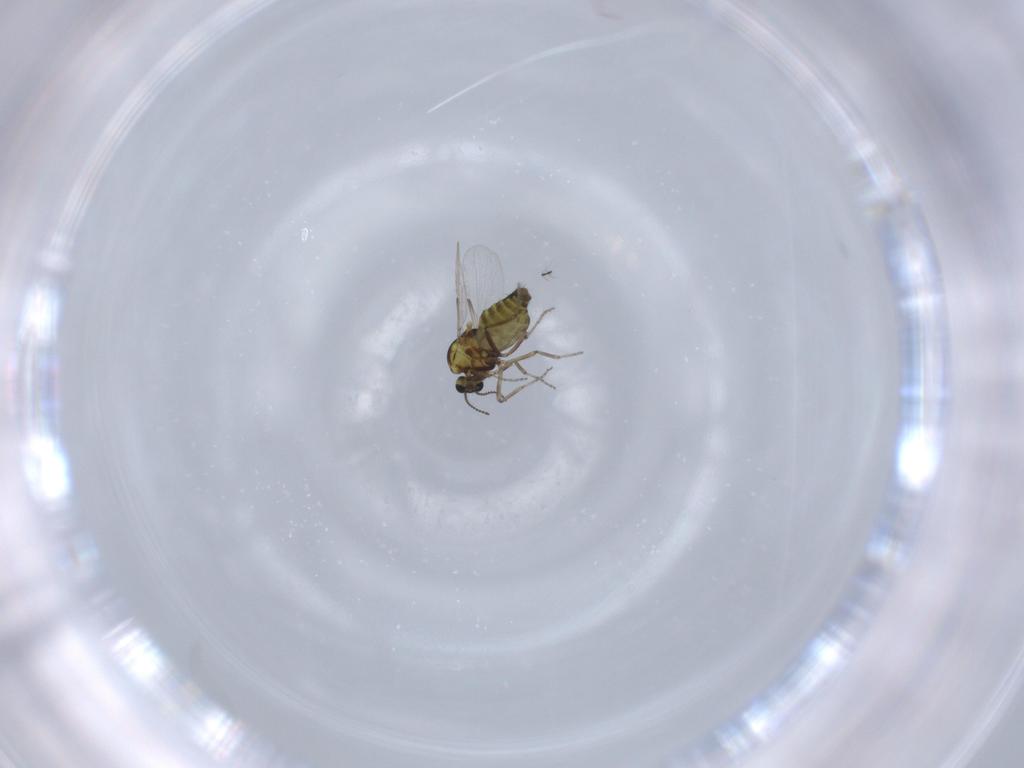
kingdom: Animalia
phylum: Arthropoda
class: Insecta
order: Diptera
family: Ceratopogonidae
